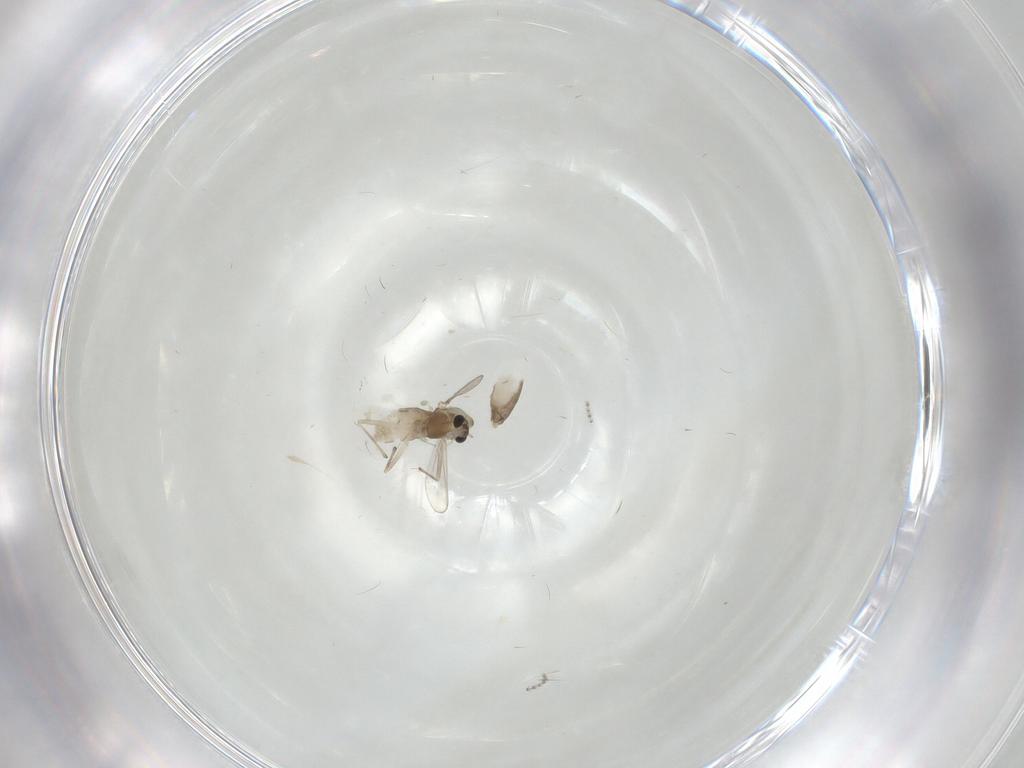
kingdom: Animalia
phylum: Arthropoda
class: Insecta
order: Diptera
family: Chironomidae
